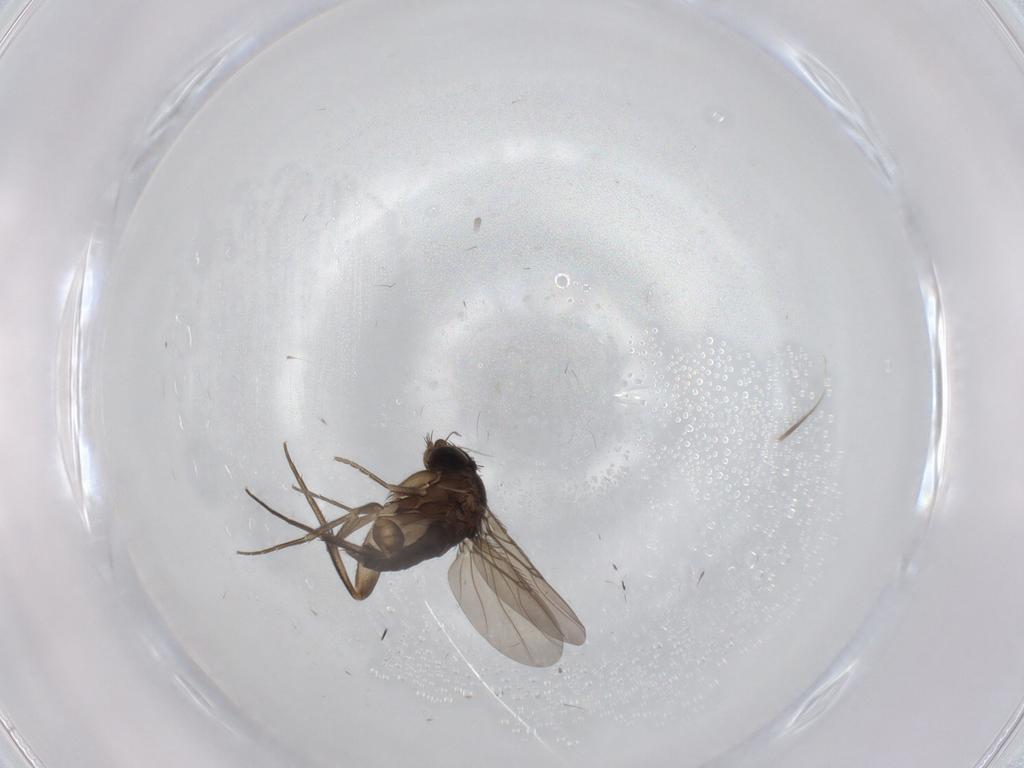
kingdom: Animalia
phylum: Arthropoda
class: Insecta
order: Diptera
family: Phoridae
